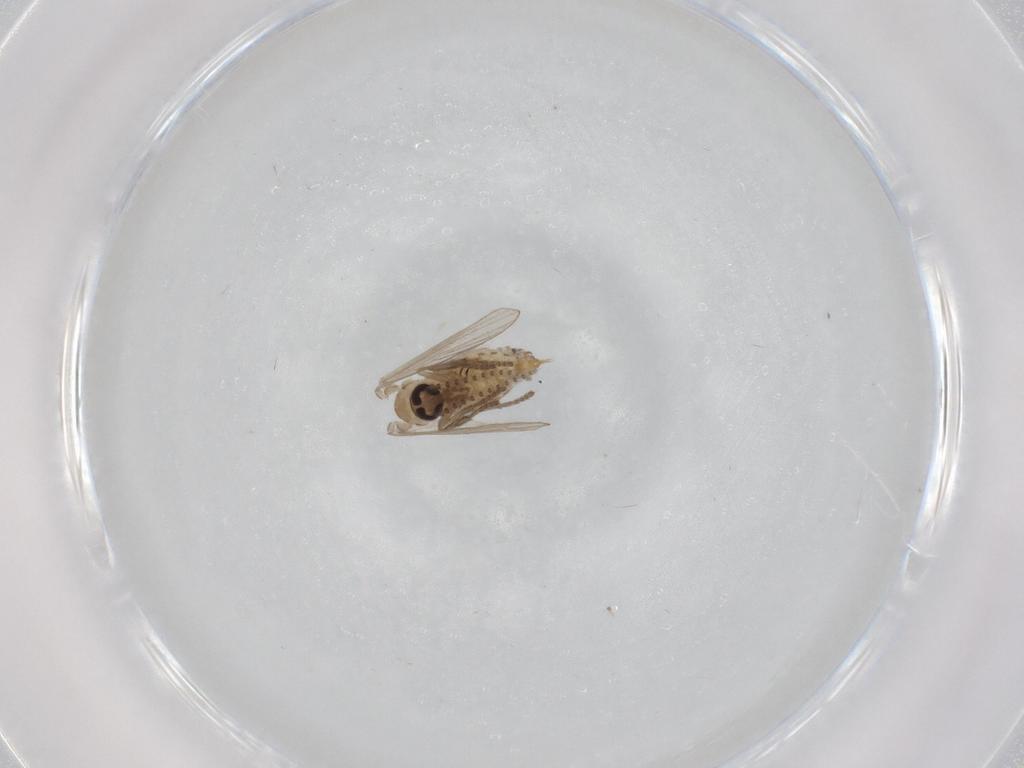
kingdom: Animalia
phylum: Arthropoda
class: Insecta
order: Diptera
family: Psychodidae
